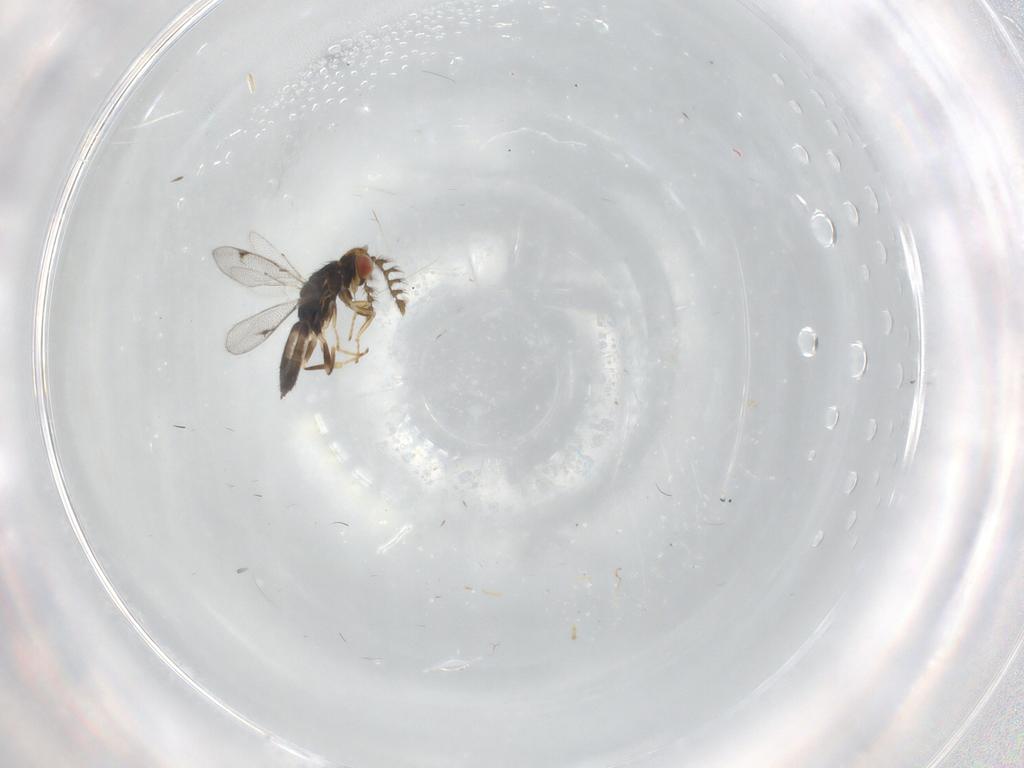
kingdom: Animalia
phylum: Arthropoda
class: Insecta
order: Hymenoptera
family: Eulophidae
